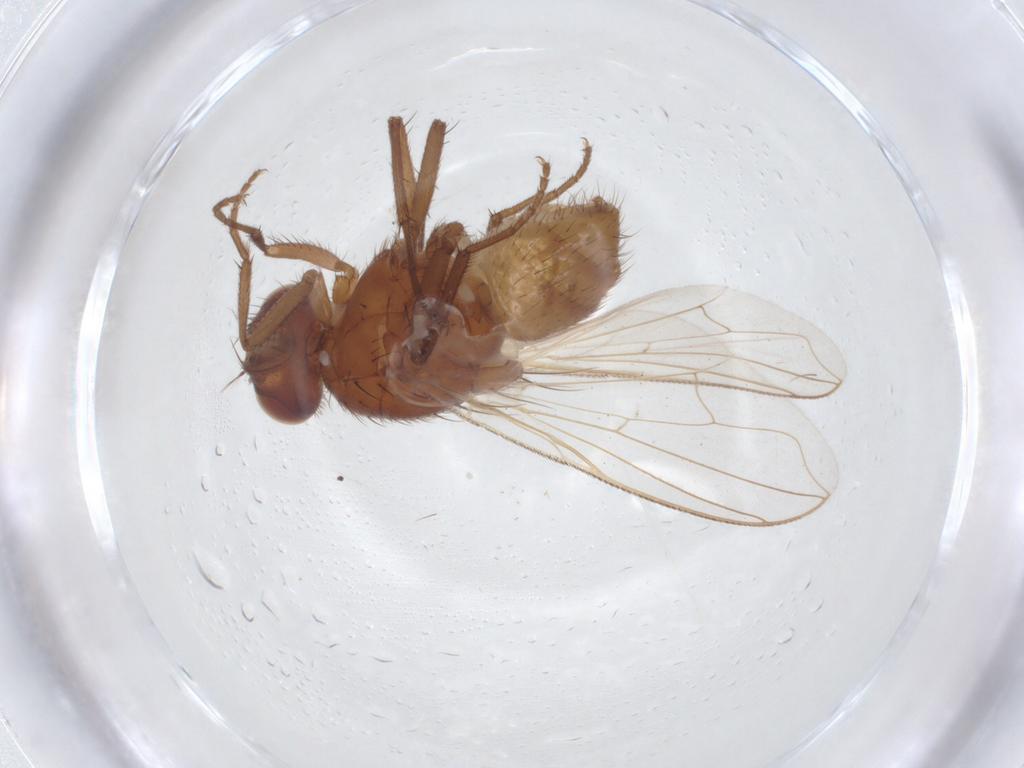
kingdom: Animalia
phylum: Arthropoda
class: Insecta
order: Diptera
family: Muscidae
